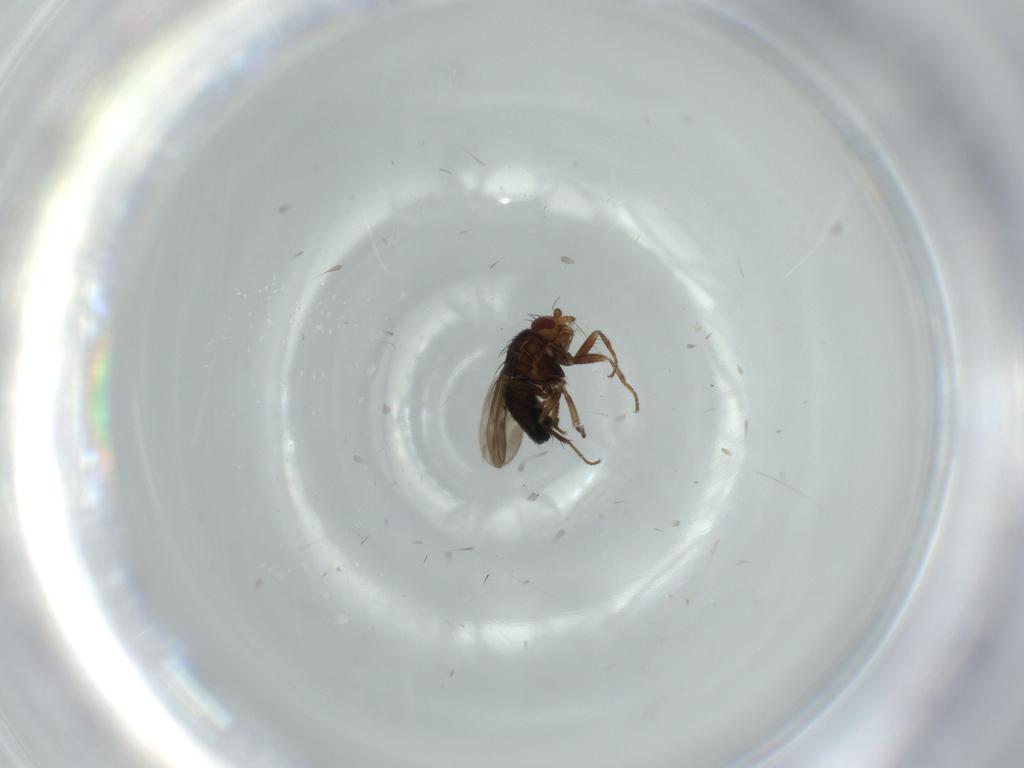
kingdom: Animalia
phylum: Arthropoda
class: Insecta
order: Diptera
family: Sphaeroceridae
